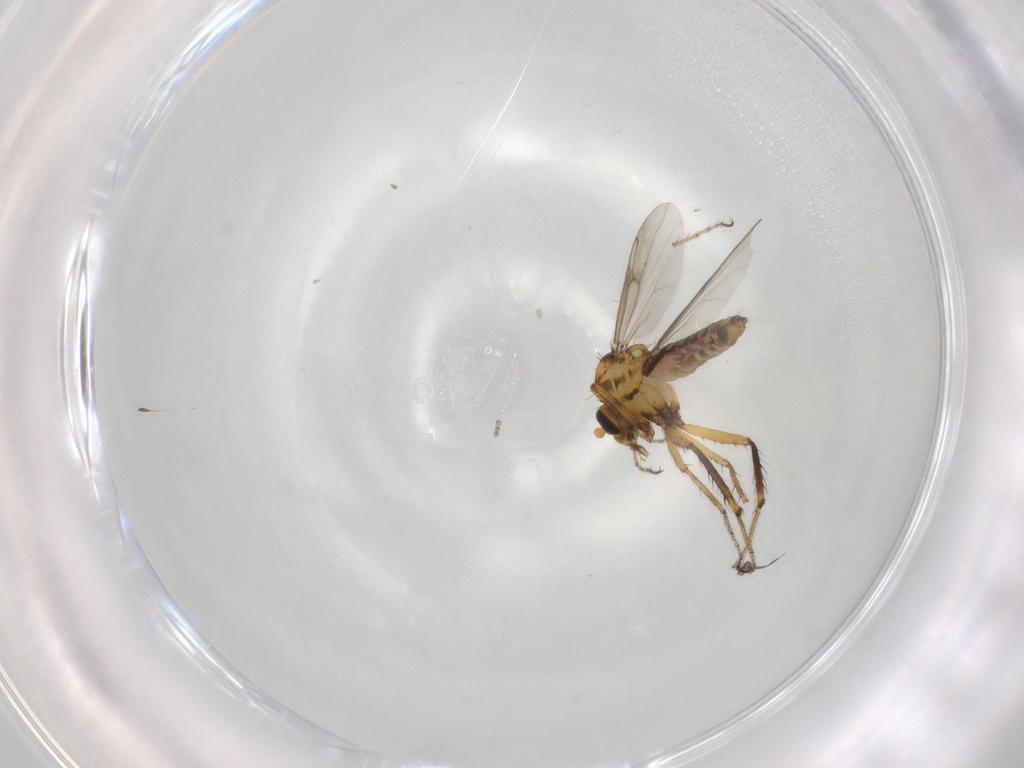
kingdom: Animalia
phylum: Arthropoda
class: Insecta
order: Diptera
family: Ceratopogonidae
